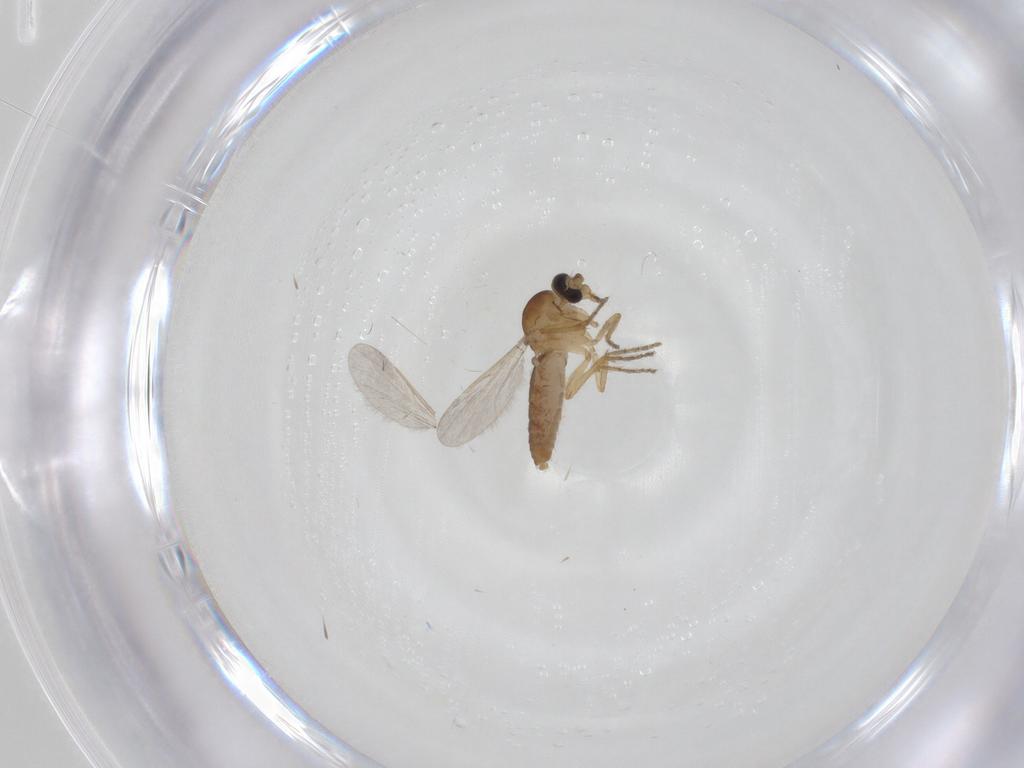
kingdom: Animalia
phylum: Arthropoda
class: Insecta
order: Diptera
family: Ceratopogonidae
